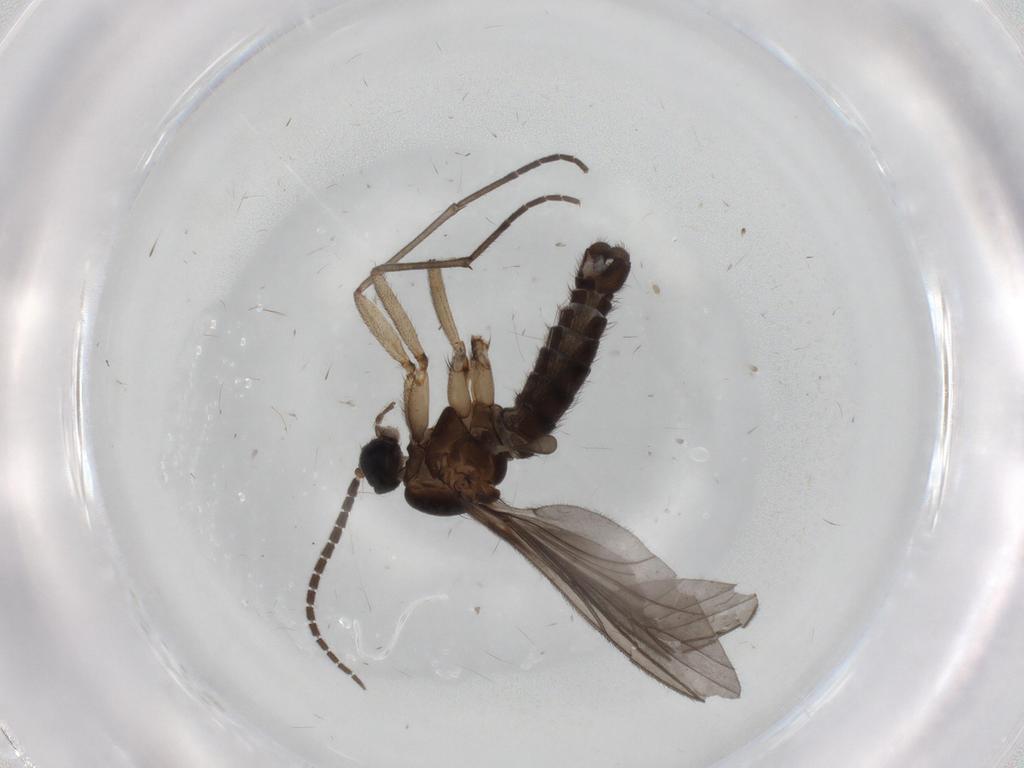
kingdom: Animalia
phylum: Arthropoda
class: Insecta
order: Diptera
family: Sciaridae
